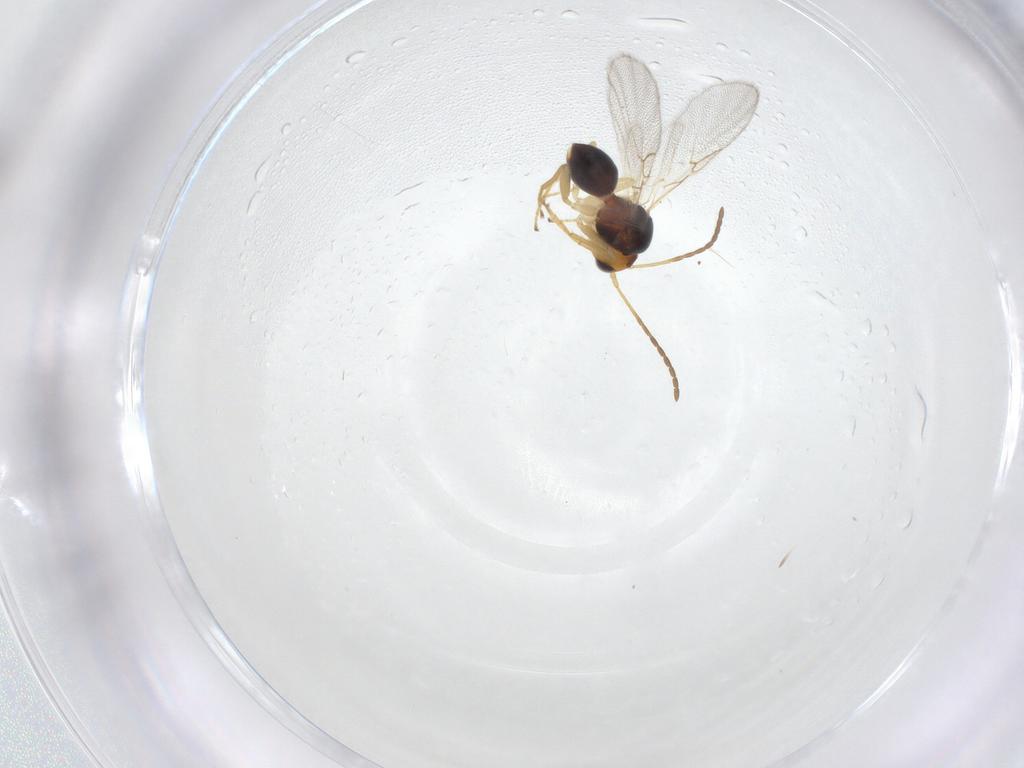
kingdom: Animalia
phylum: Arthropoda
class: Insecta
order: Hymenoptera
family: Figitidae
